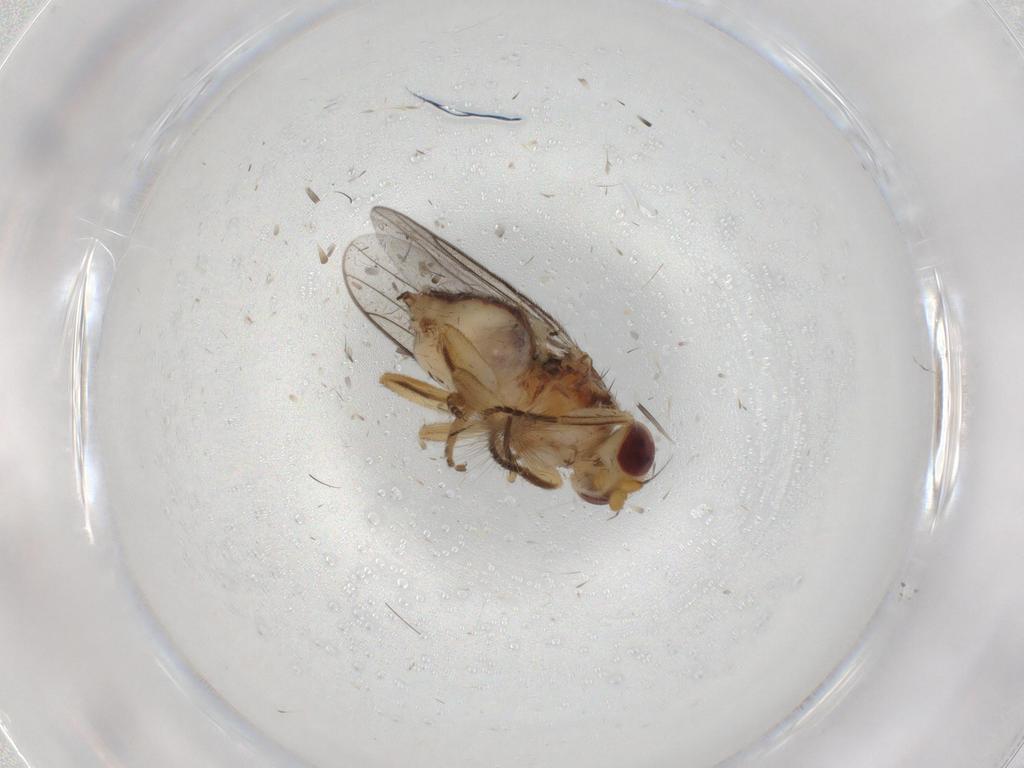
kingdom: Animalia
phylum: Arthropoda
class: Insecta
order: Diptera
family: Chloropidae
